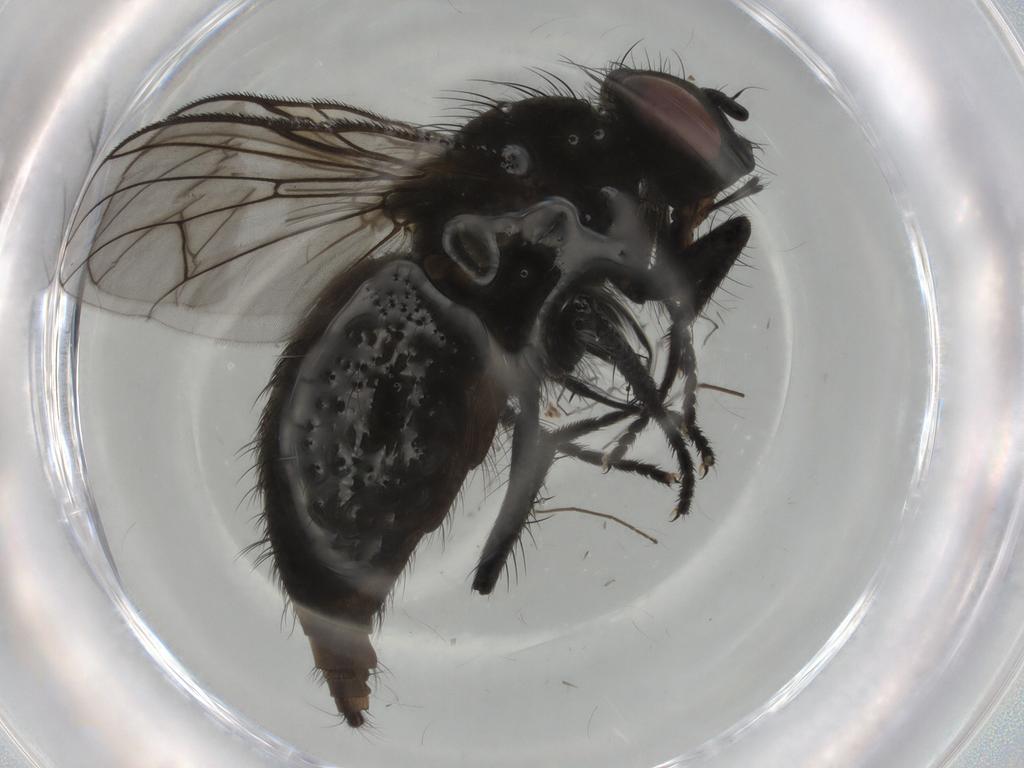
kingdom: Animalia
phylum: Arthropoda
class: Insecta
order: Diptera
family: Muscidae
